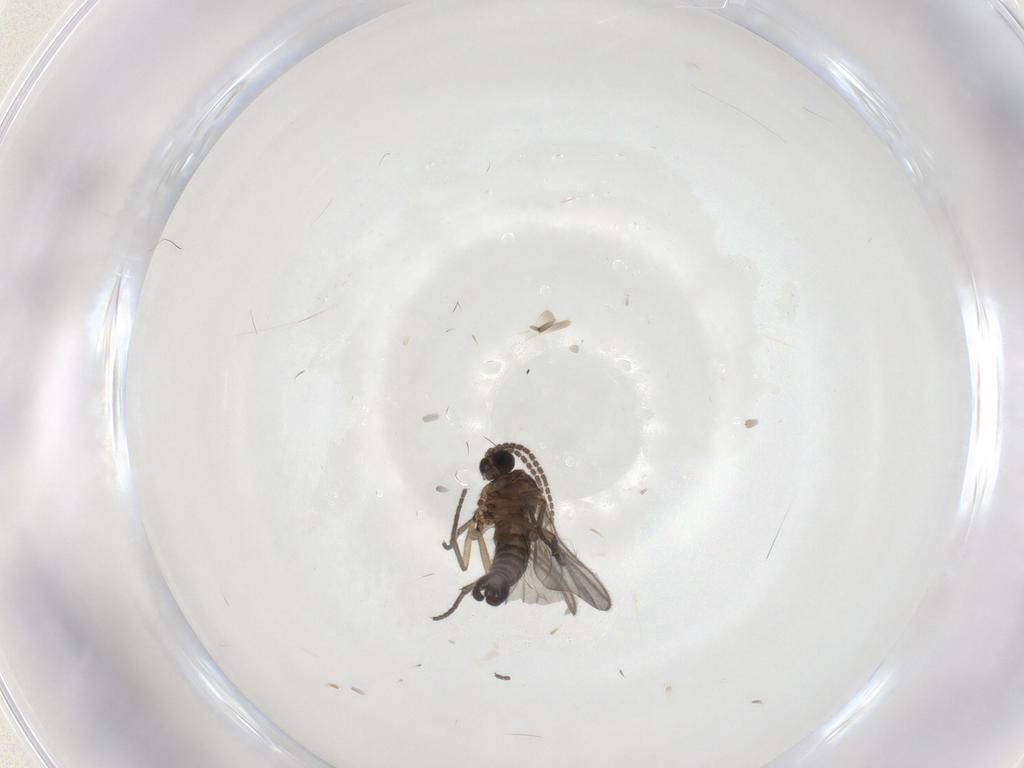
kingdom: Animalia
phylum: Arthropoda
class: Insecta
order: Diptera
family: Sciaridae
